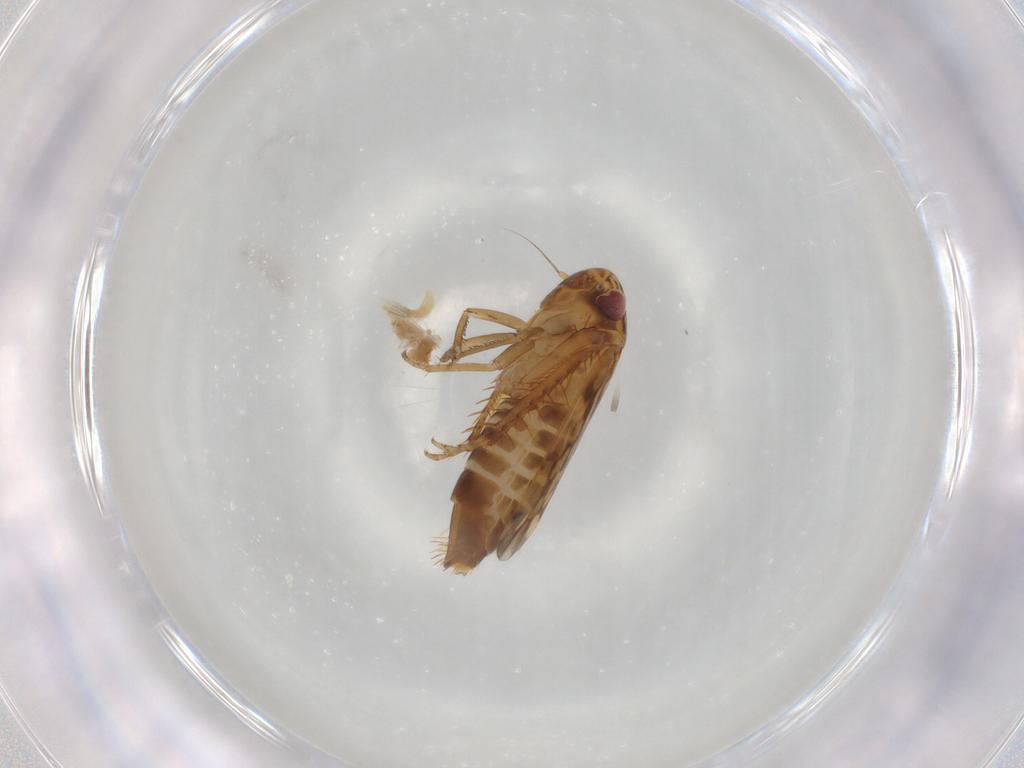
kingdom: Animalia
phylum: Arthropoda
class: Insecta
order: Hemiptera
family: Cicadellidae
